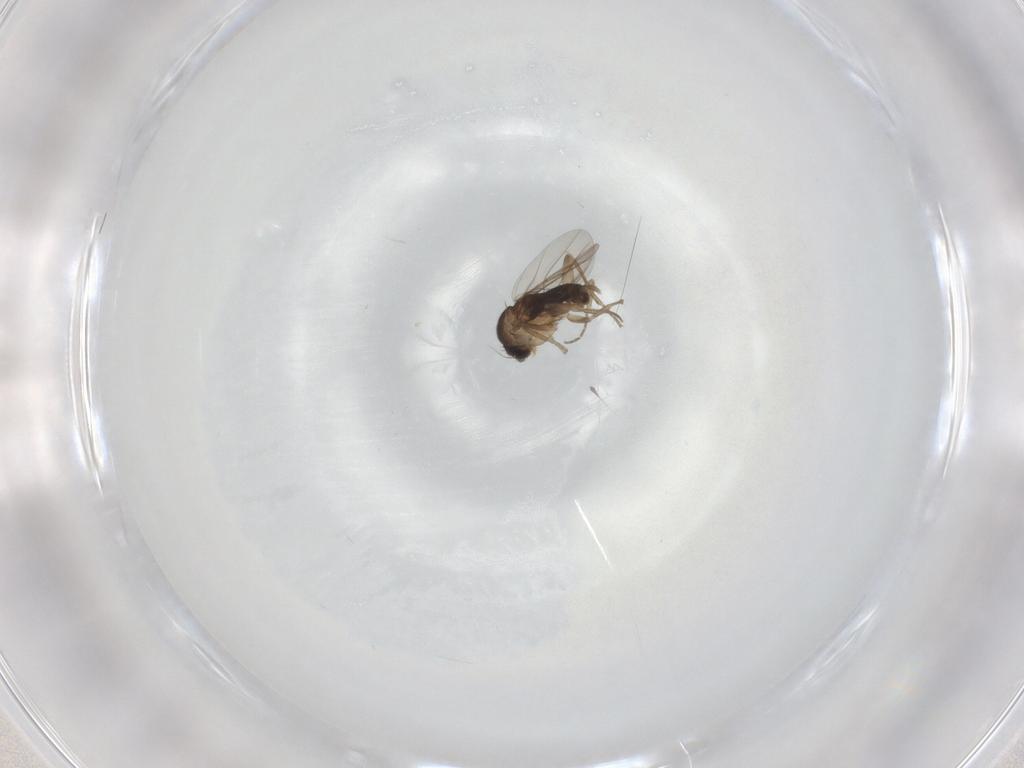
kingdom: Animalia
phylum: Arthropoda
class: Insecta
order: Diptera
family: Phoridae
